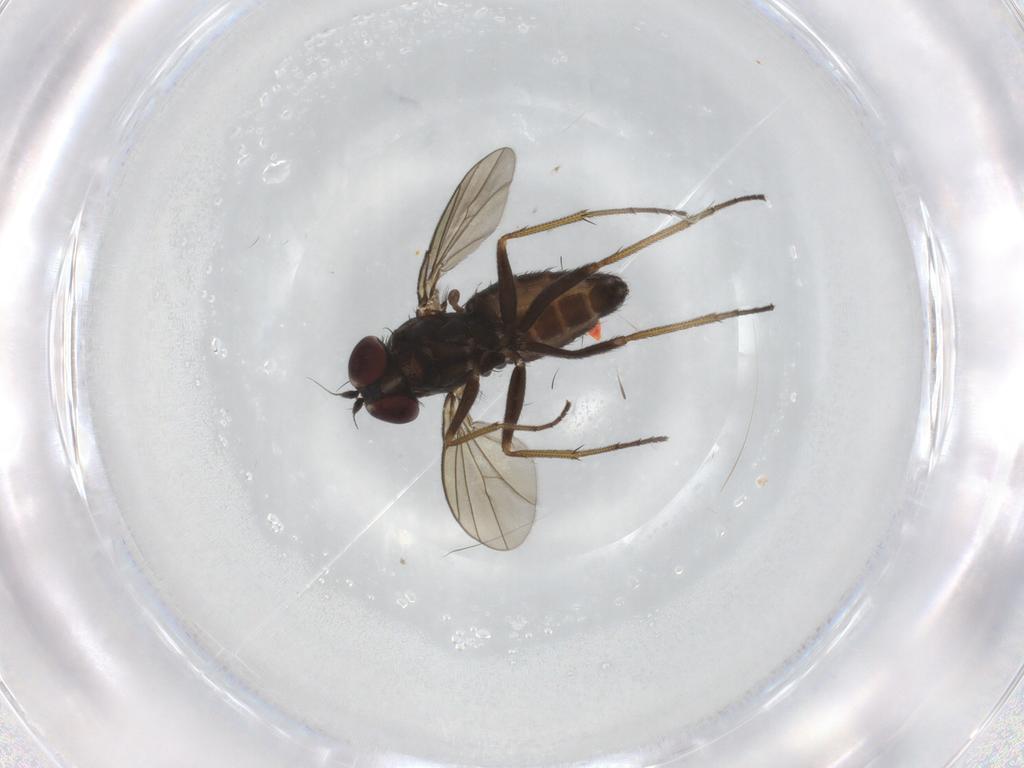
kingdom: Animalia
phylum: Arthropoda
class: Insecta
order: Diptera
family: Dolichopodidae
